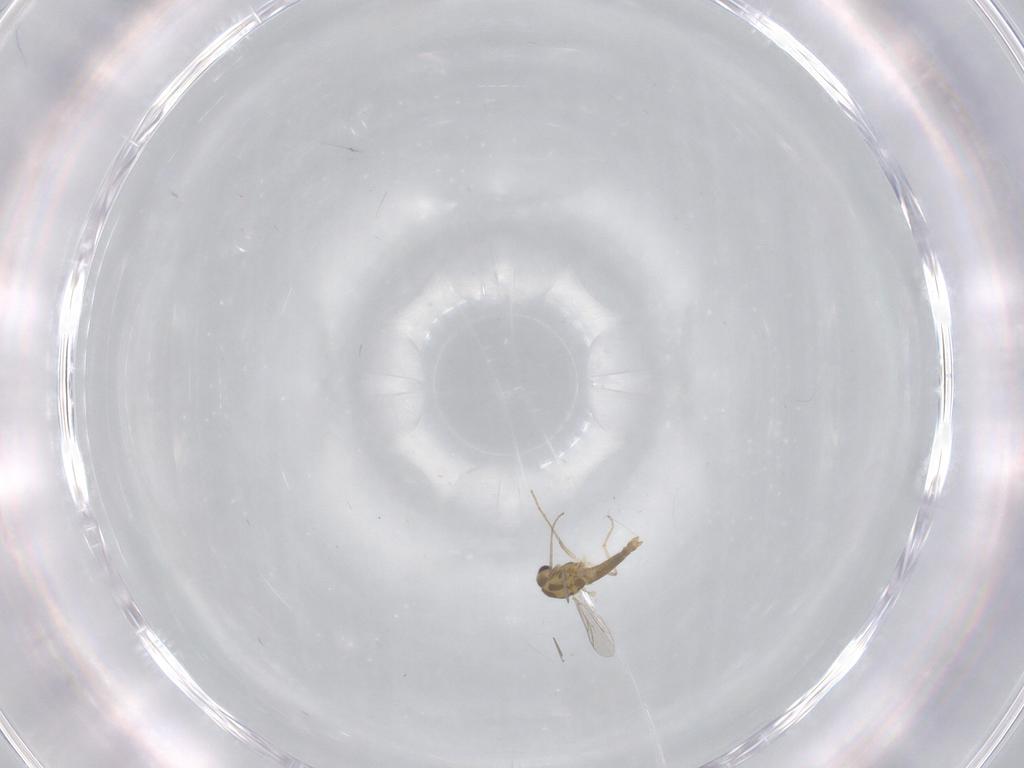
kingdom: Animalia
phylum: Arthropoda
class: Insecta
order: Diptera
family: Chironomidae
